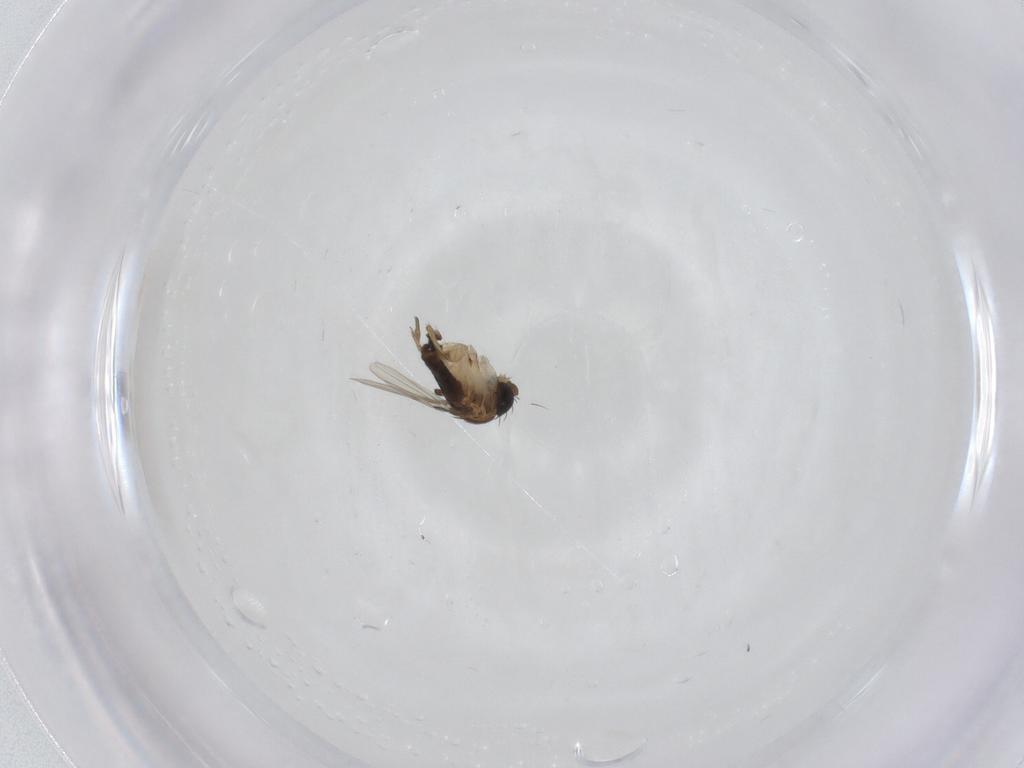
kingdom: Animalia
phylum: Arthropoda
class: Insecta
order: Diptera
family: Phoridae
